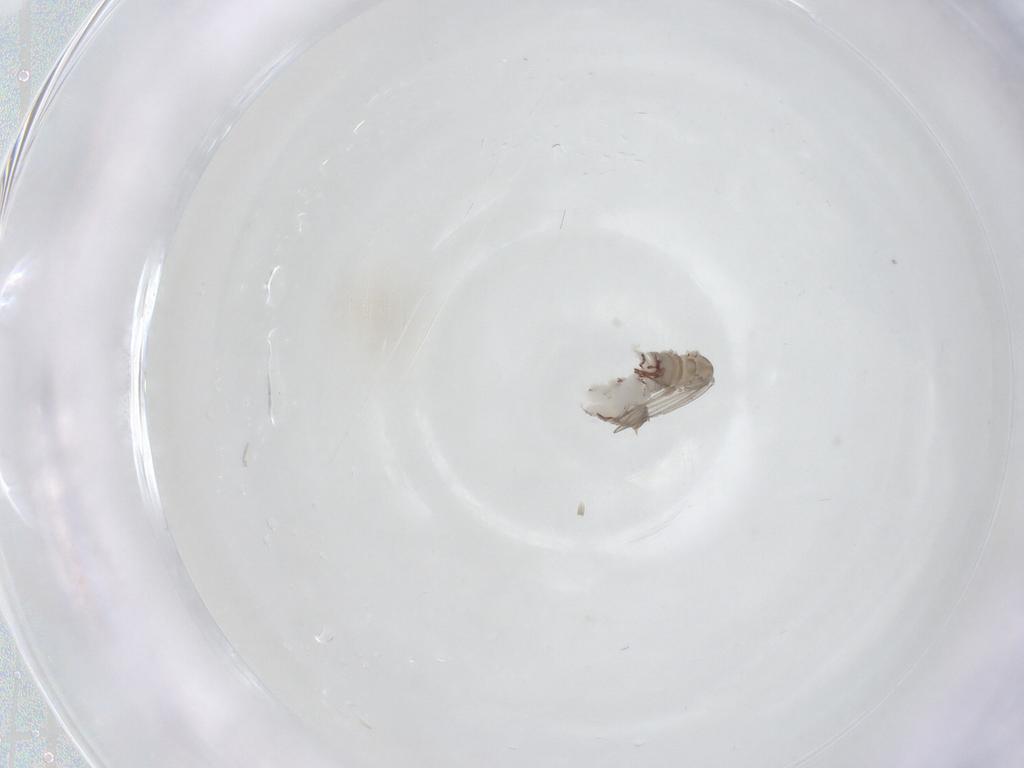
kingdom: Animalia
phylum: Arthropoda
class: Insecta
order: Diptera
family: Psychodidae
